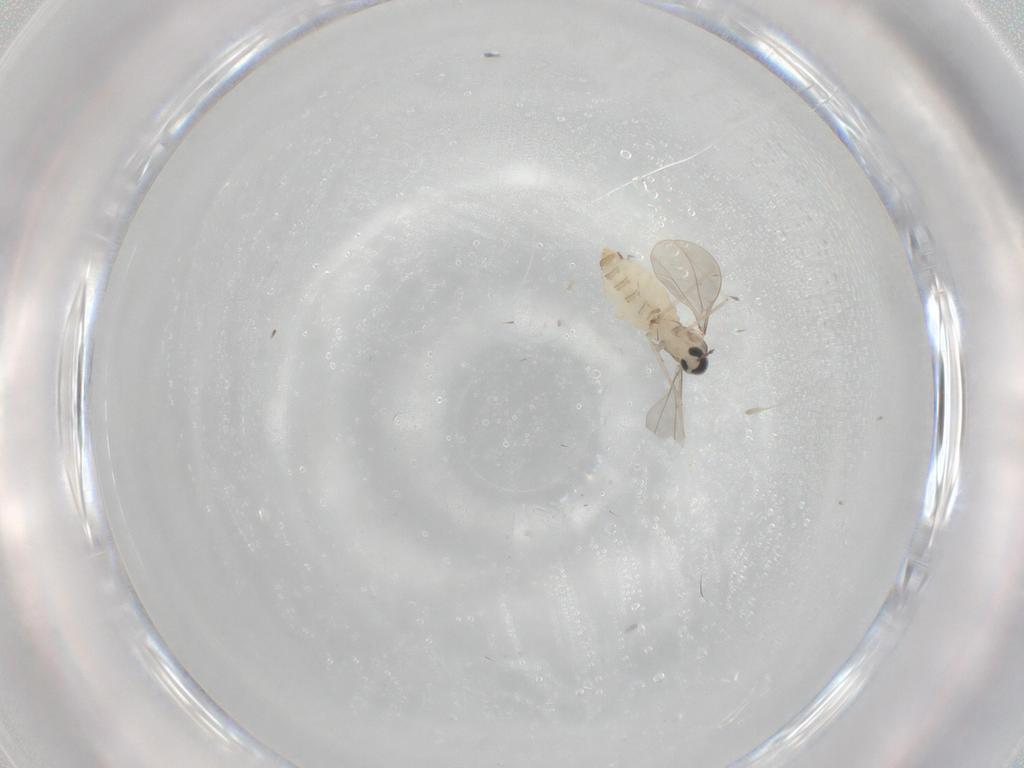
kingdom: Animalia
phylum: Arthropoda
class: Insecta
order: Diptera
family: Cecidomyiidae
